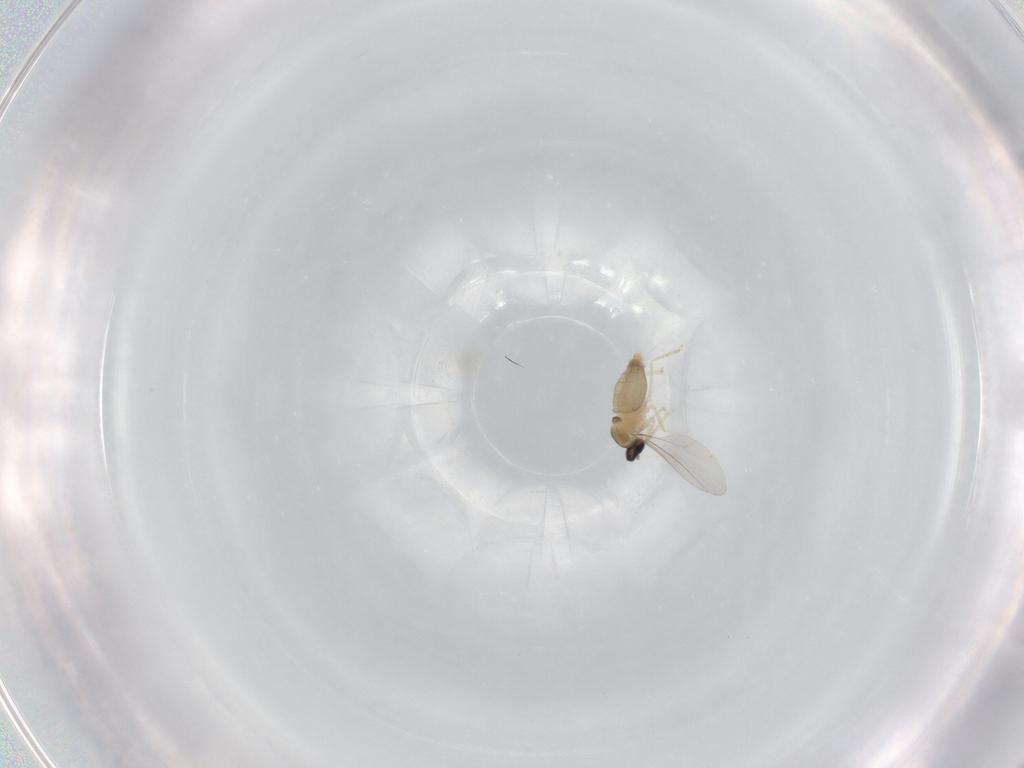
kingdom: Animalia
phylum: Arthropoda
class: Insecta
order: Diptera
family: Cecidomyiidae
